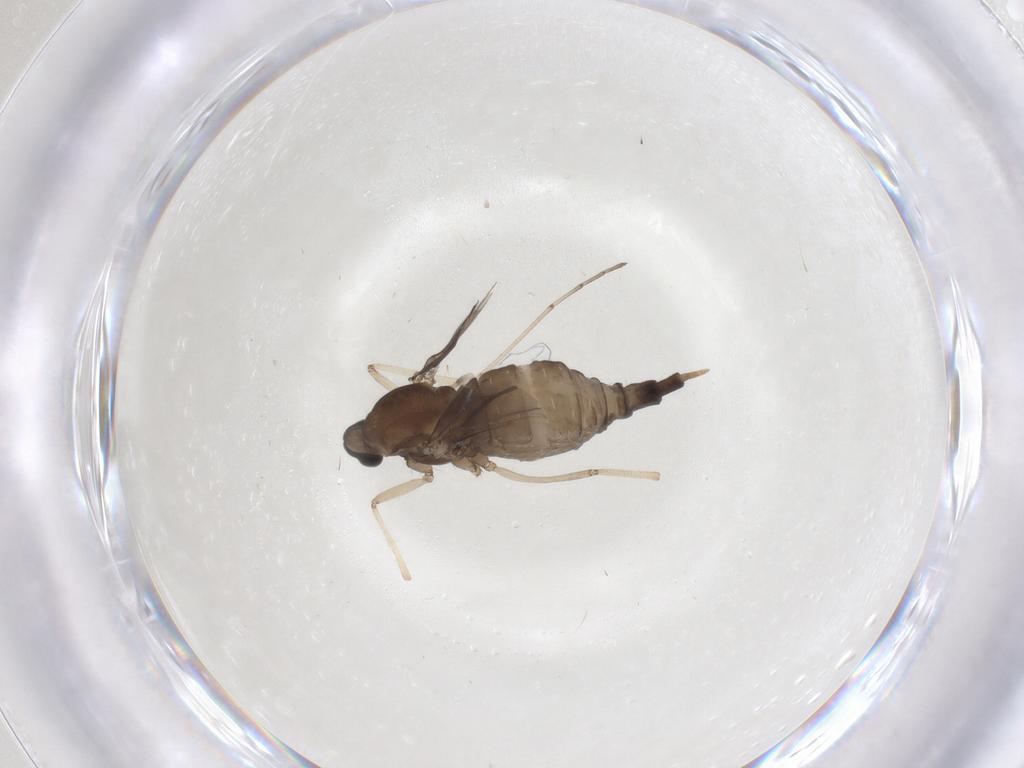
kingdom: Animalia
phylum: Arthropoda
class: Insecta
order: Diptera
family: Cecidomyiidae
